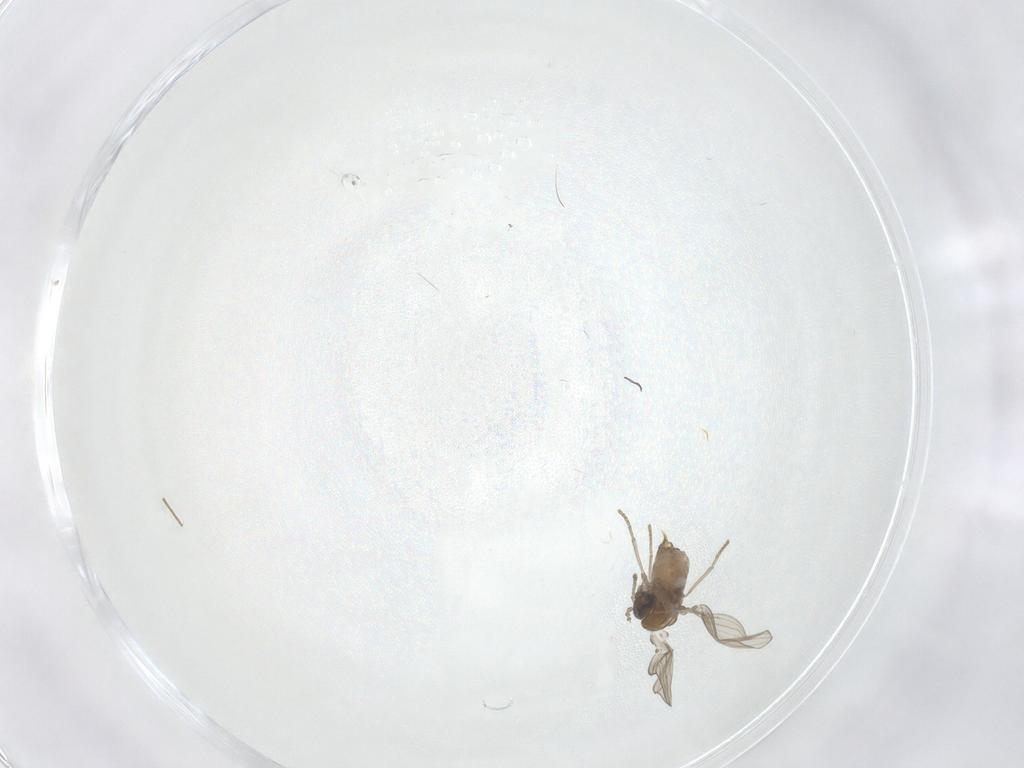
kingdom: Animalia
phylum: Arthropoda
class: Insecta
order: Diptera
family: Psychodidae
